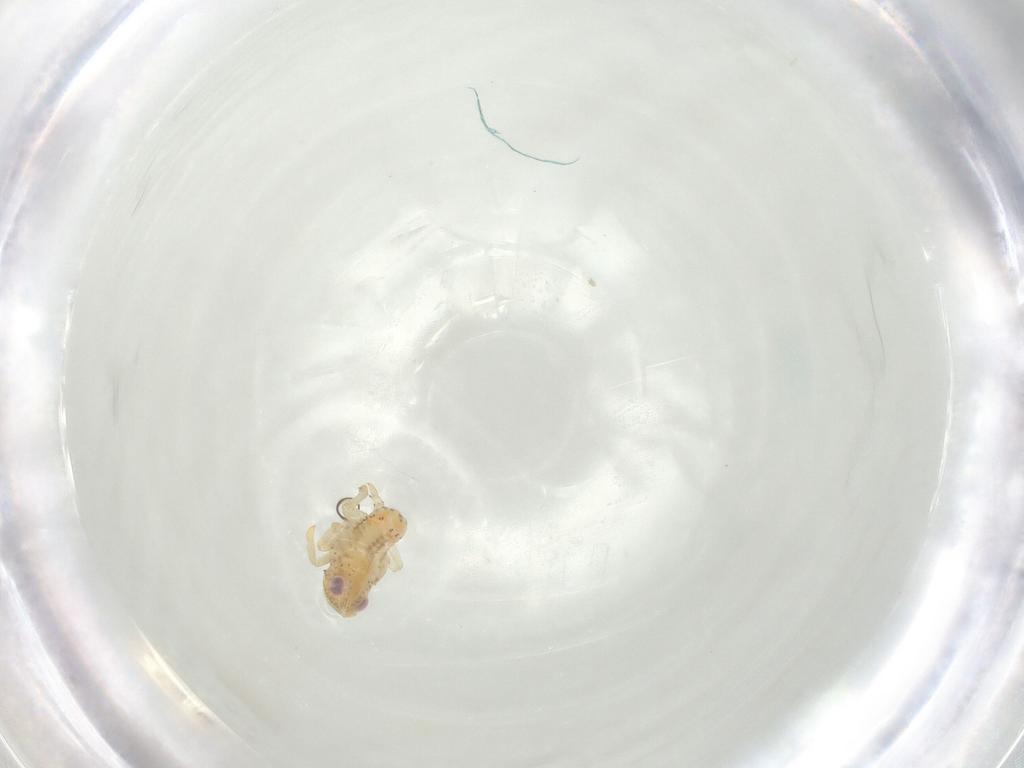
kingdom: Animalia
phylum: Arthropoda
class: Insecta
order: Hemiptera
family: Tropiduchidae
